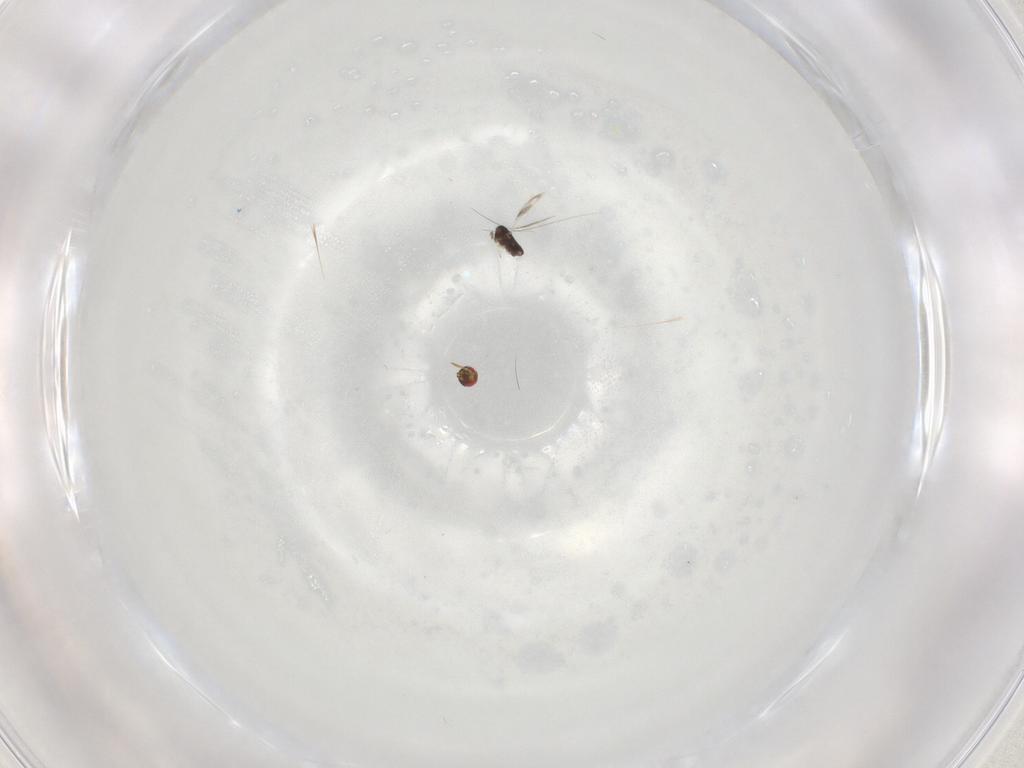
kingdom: Animalia
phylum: Arthropoda
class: Insecta
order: Hymenoptera
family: Azotidae
